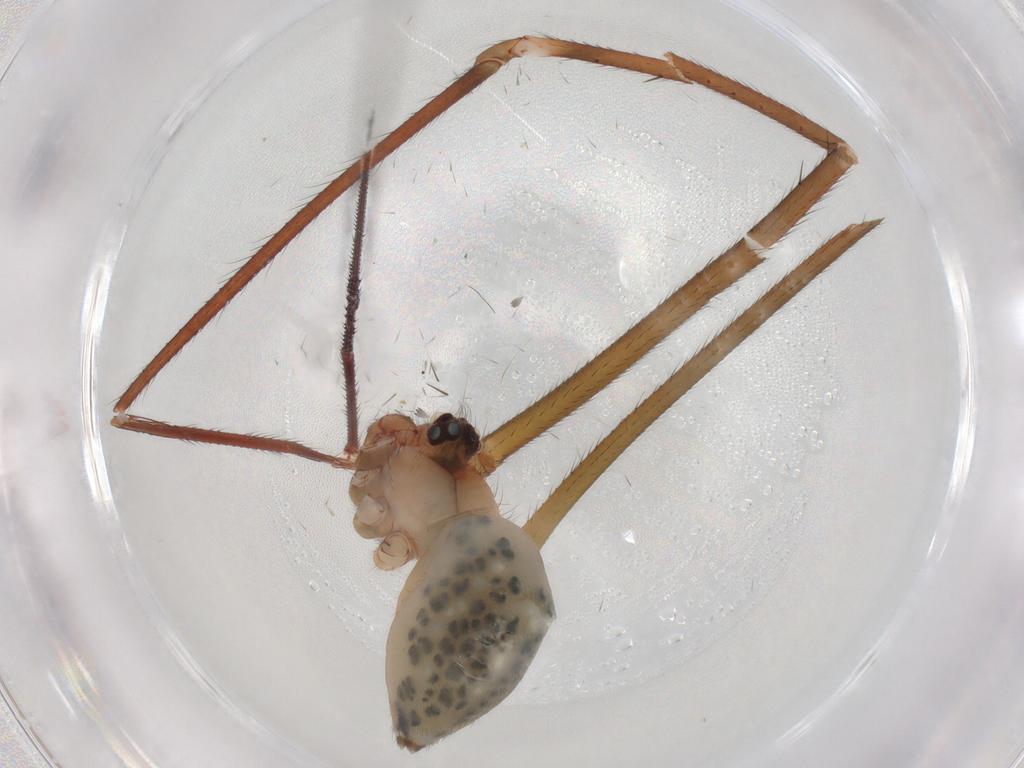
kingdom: Animalia
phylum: Arthropoda
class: Arachnida
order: Araneae
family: Pholcidae
